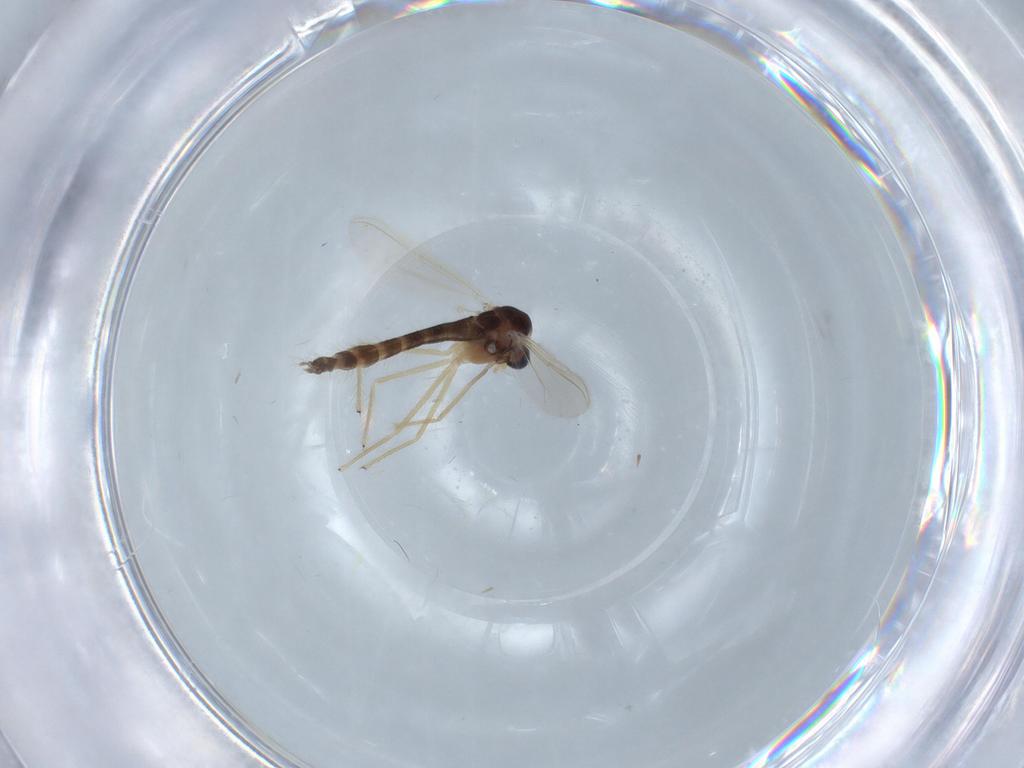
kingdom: Animalia
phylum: Arthropoda
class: Insecta
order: Diptera
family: Chironomidae
